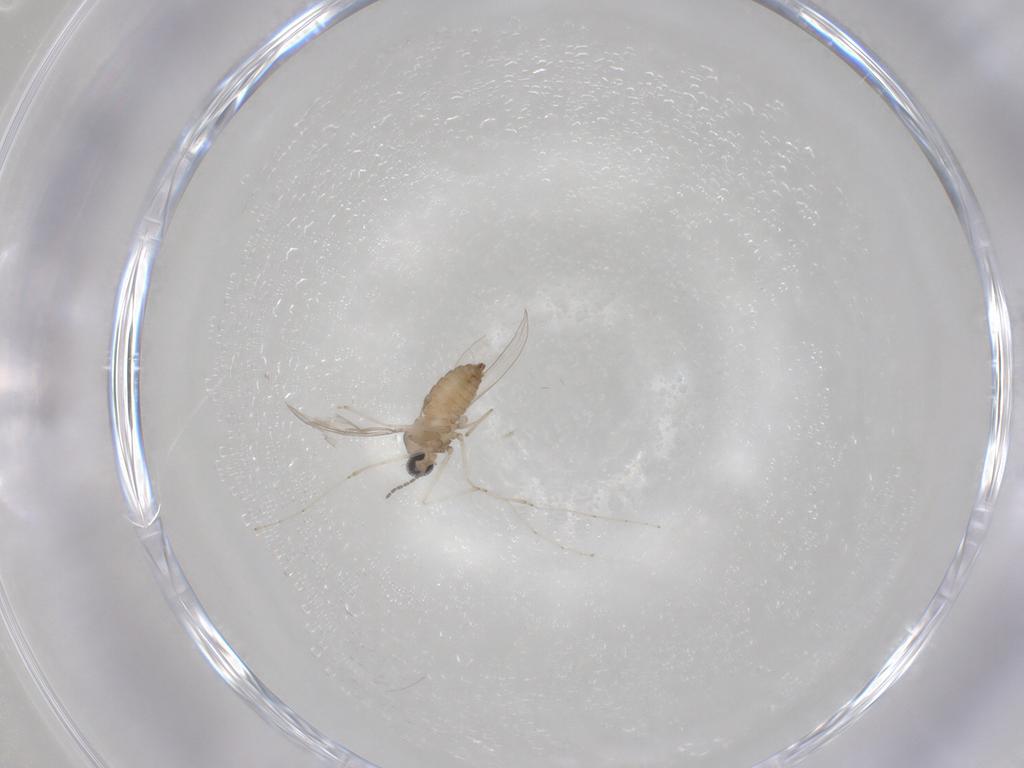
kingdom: Animalia
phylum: Arthropoda
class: Insecta
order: Diptera
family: Cecidomyiidae
